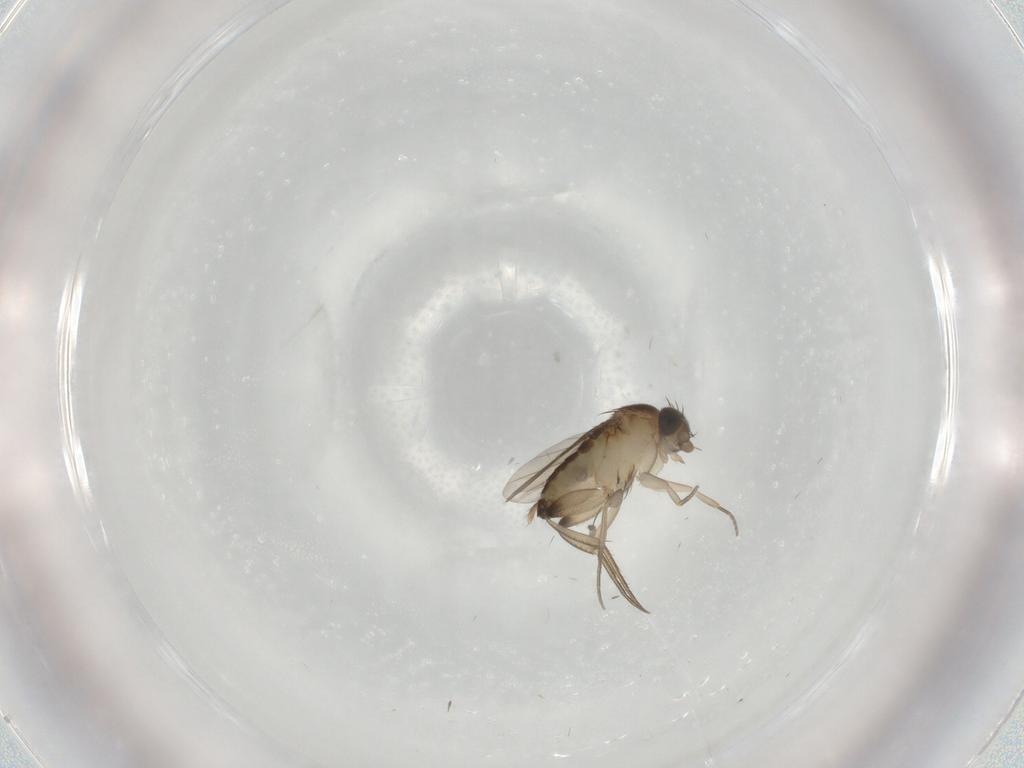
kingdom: Animalia
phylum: Arthropoda
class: Insecta
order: Diptera
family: Phoridae
